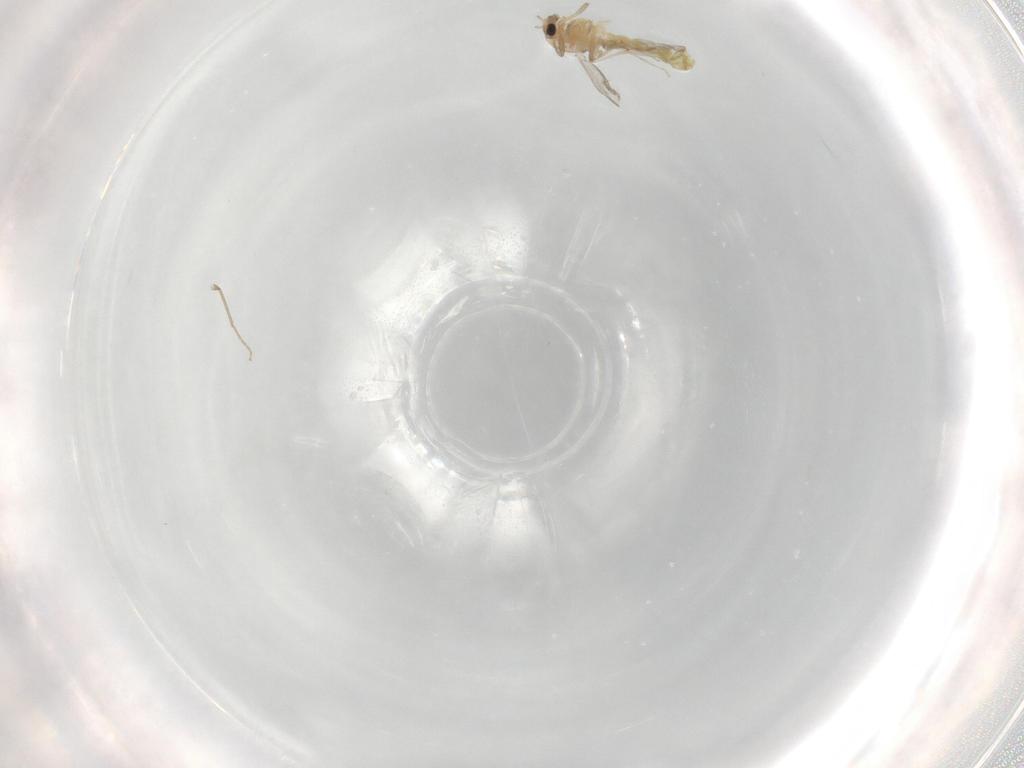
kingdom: Animalia
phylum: Arthropoda
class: Insecta
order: Diptera
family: Chironomidae
